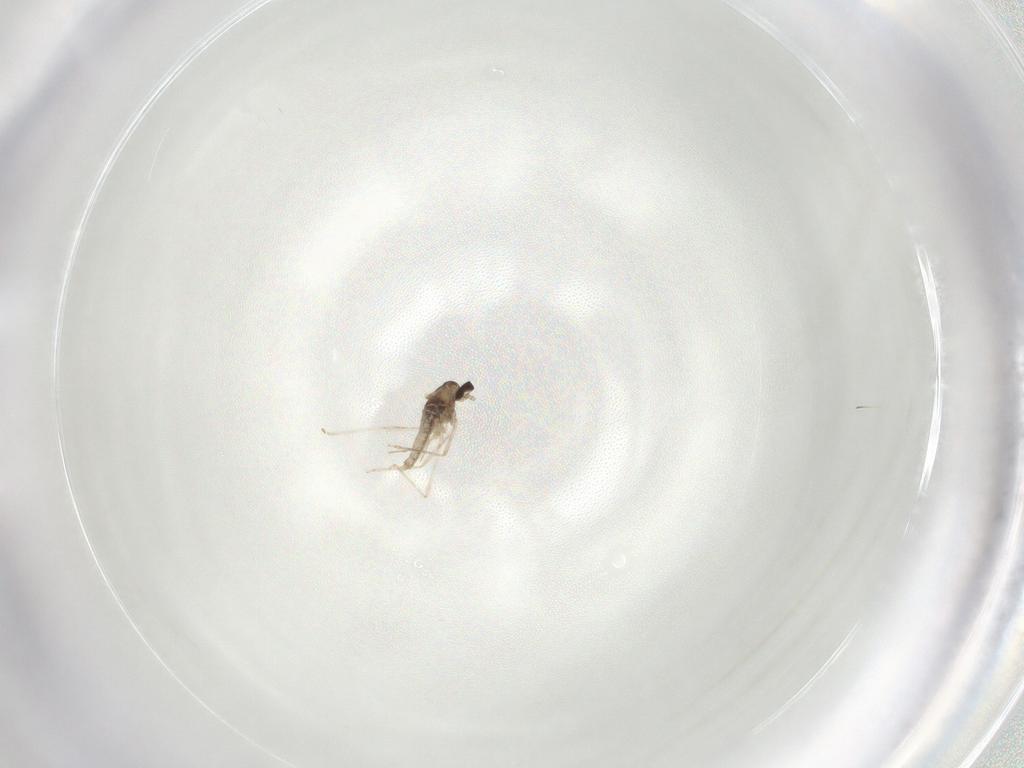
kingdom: Animalia
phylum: Arthropoda
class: Insecta
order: Diptera
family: Cecidomyiidae
